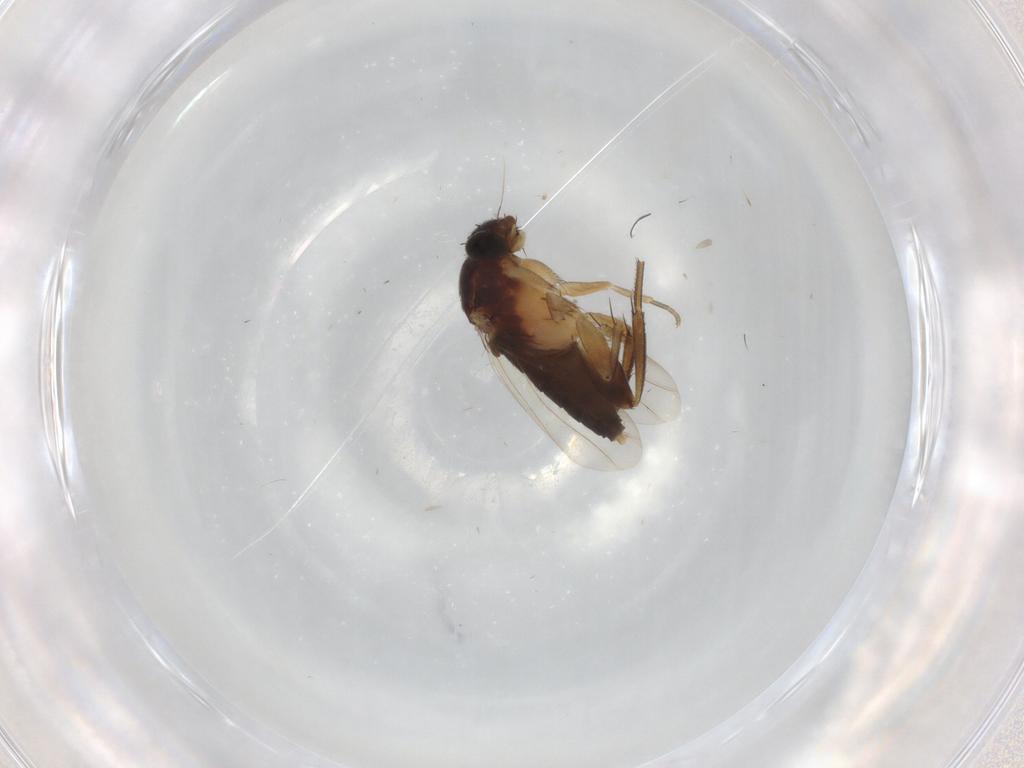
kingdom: Animalia
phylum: Arthropoda
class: Insecta
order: Diptera
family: Phoridae
